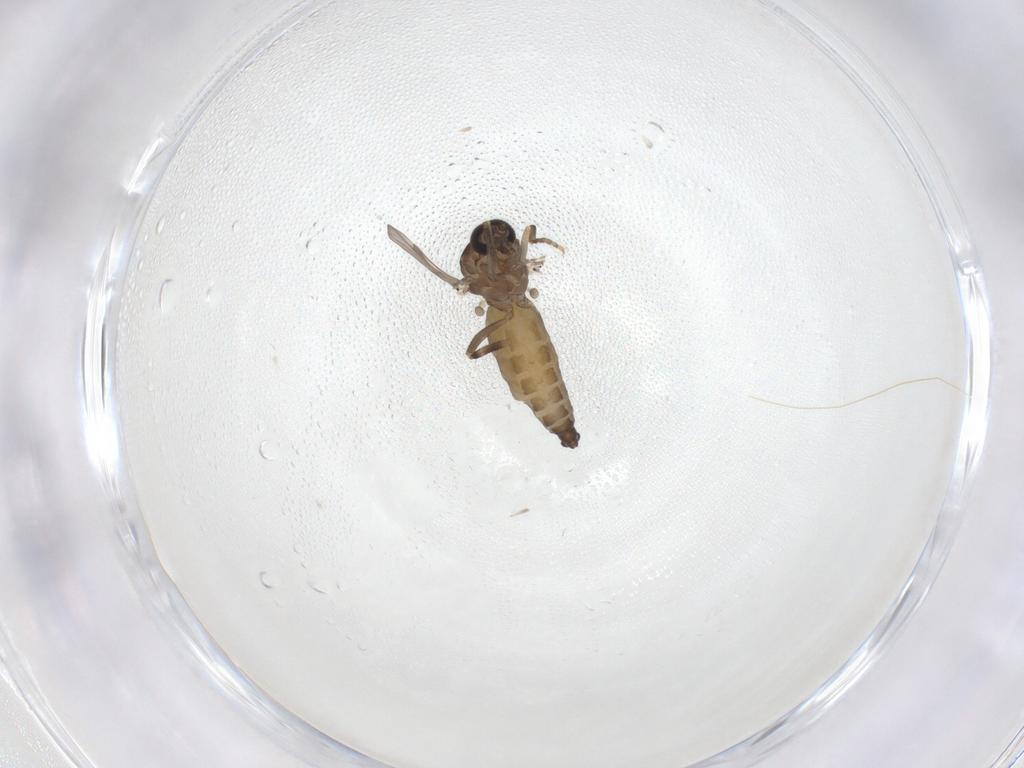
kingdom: Animalia
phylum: Arthropoda
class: Insecta
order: Diptera
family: Ceratopogonidae
